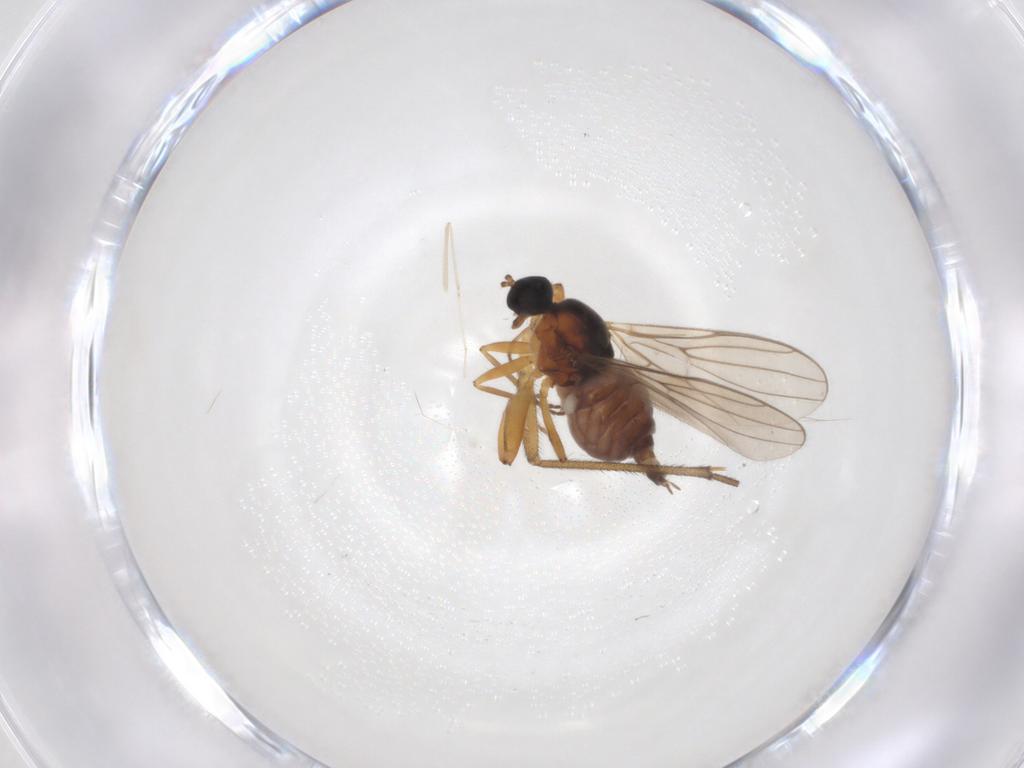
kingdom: Animalia
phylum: Arthropoda
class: Insecta
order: Diptera
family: Hybotidae
